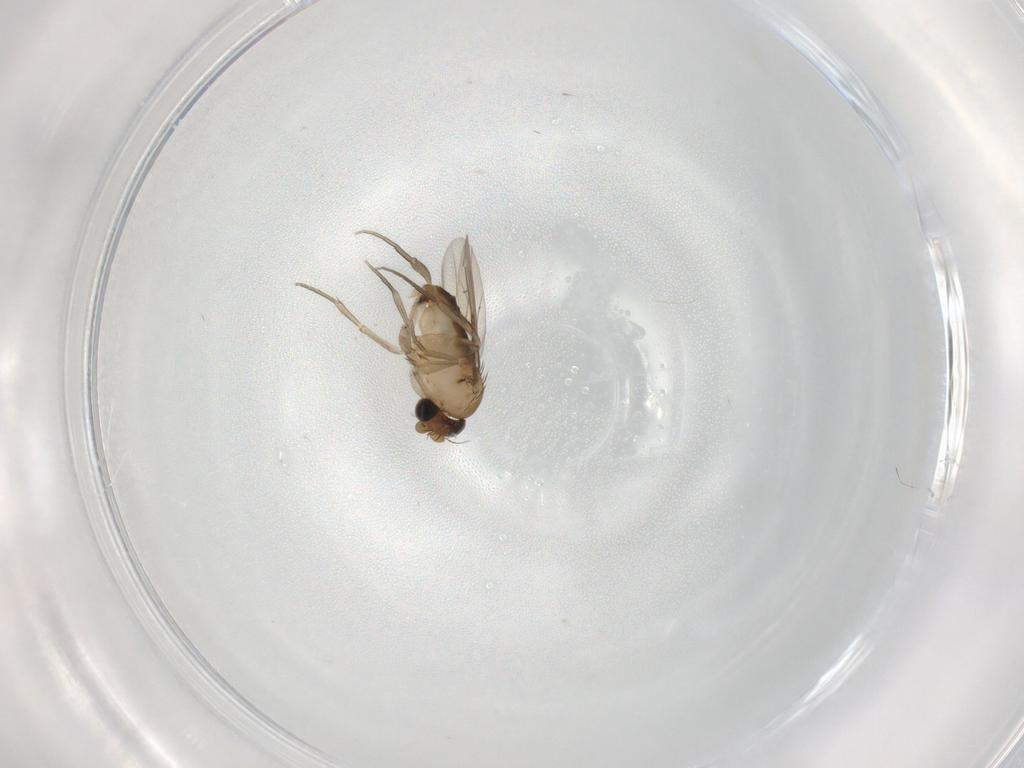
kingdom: Animalia
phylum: Arthropoda
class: Insecta
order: Diptera
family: Phoridae
